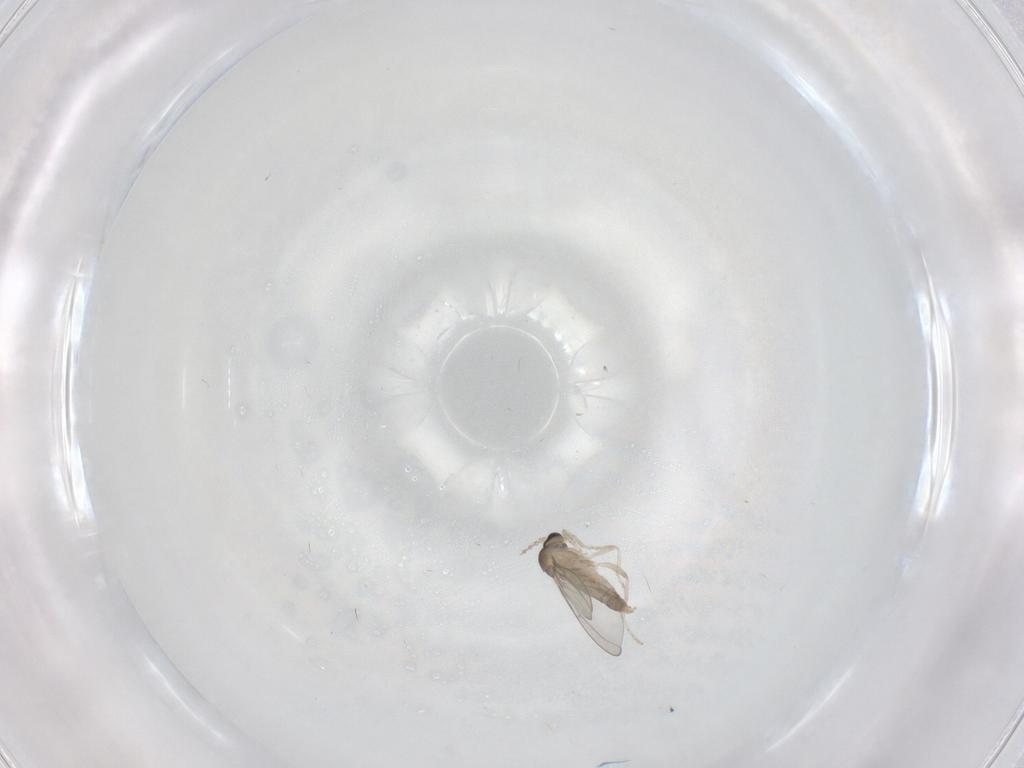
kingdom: Animalia
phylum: Arthropoda
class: Insecta
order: Diptera
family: Cecidomyiidae
